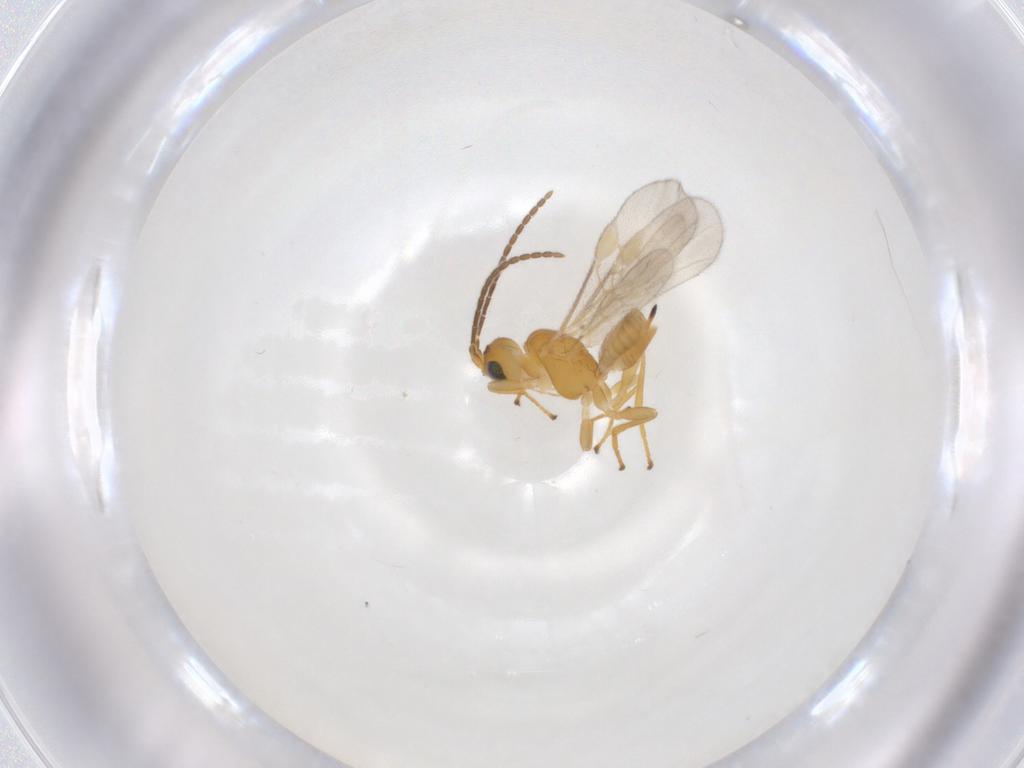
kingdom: Animalia
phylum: Arthropoda
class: Insecta
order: Hymenoptera
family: Braconidae
